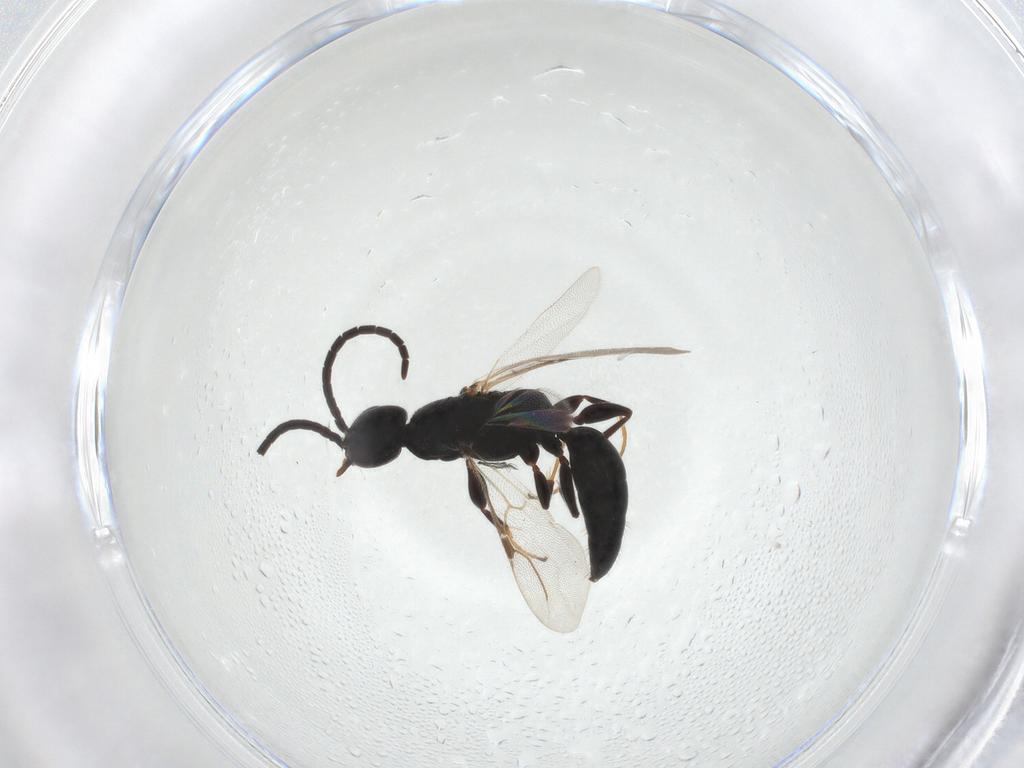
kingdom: Animalia
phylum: Arthropoda
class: Insecta
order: Hymenoptera
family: Bethylidae
